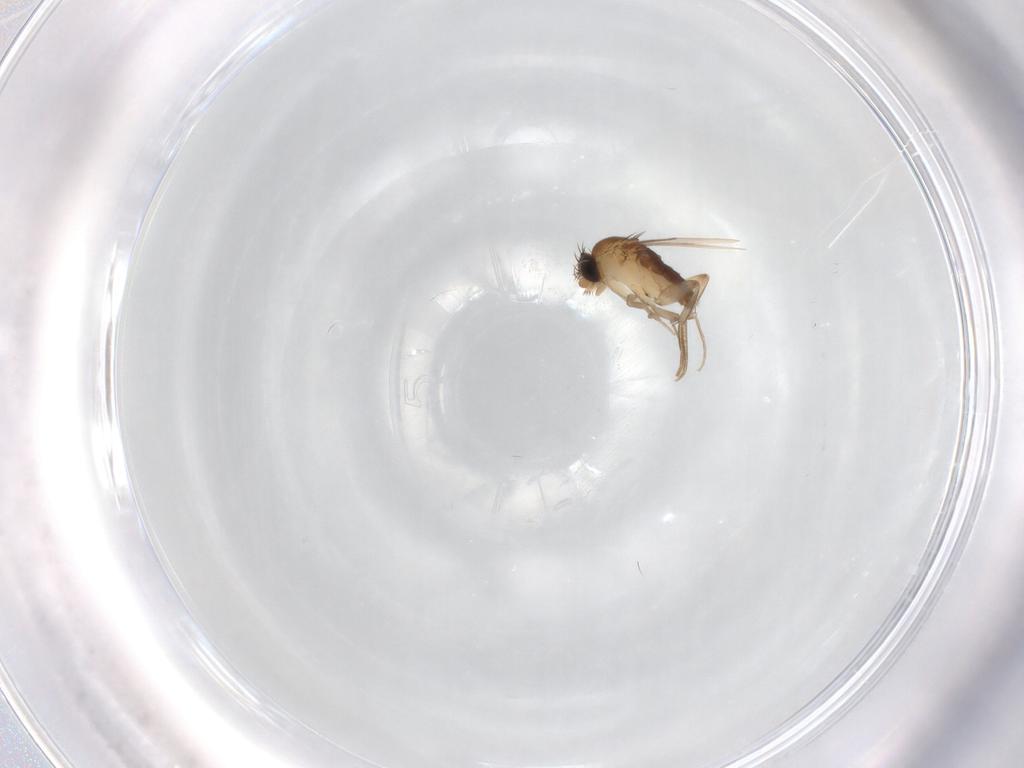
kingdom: Animalia
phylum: Arthropoda
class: Insecta
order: Diptera
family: Phoridae
